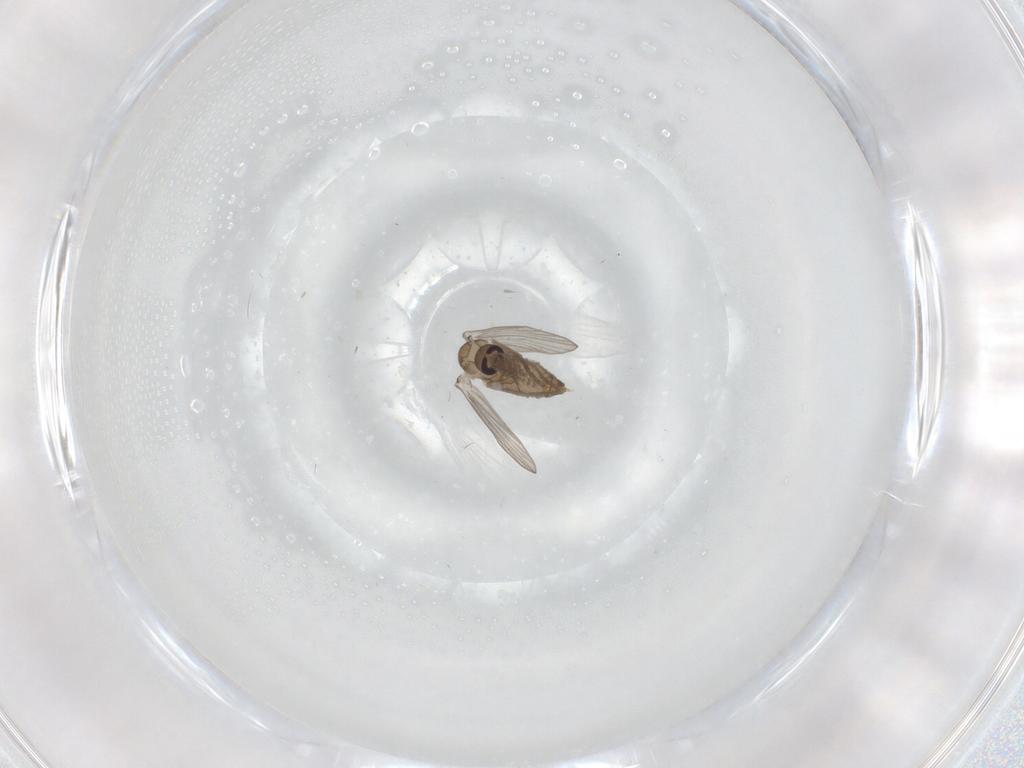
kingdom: Animalia
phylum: Arthropoda
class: Insecta
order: Diptera
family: Psychodidae
